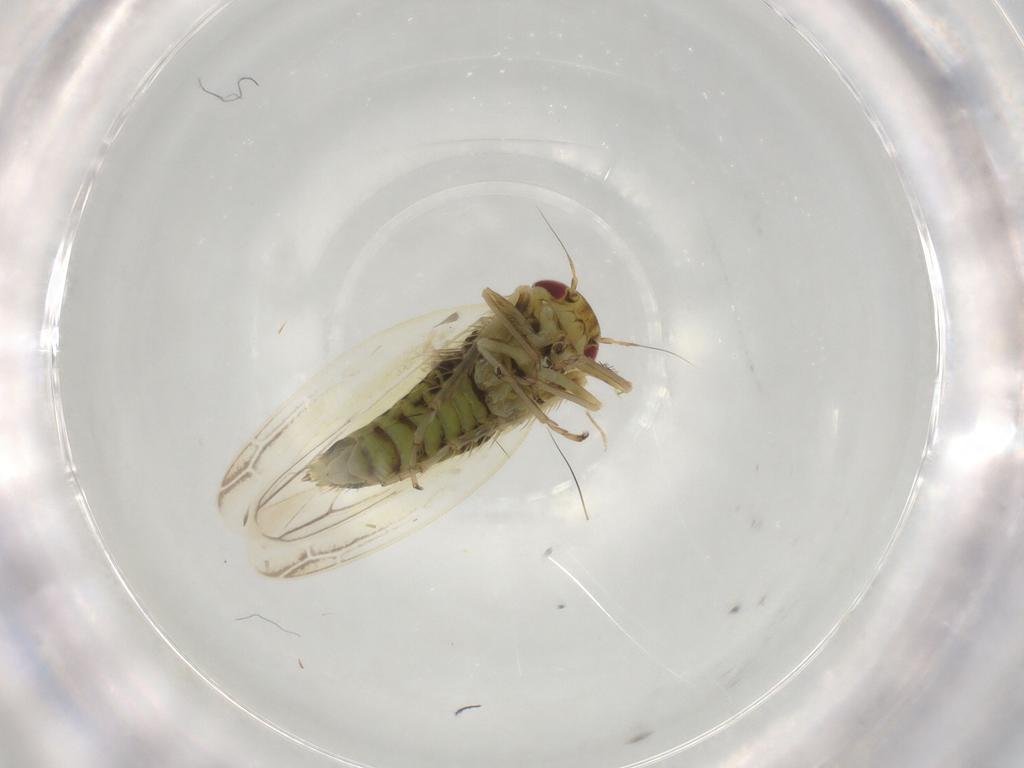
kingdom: Animalia
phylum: Arthropoda
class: Insecta
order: Hemiptera
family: Cicadellidae
